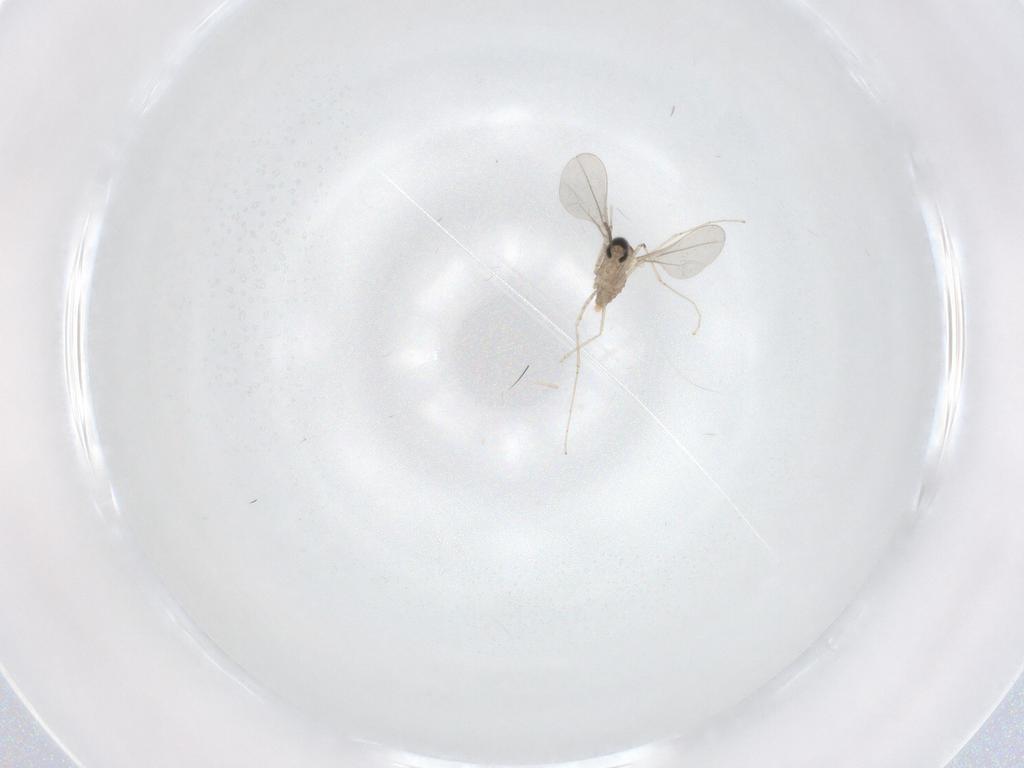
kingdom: Animalia
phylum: Arthropoda
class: Insecta
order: Diptera
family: Cecidomyiidae
